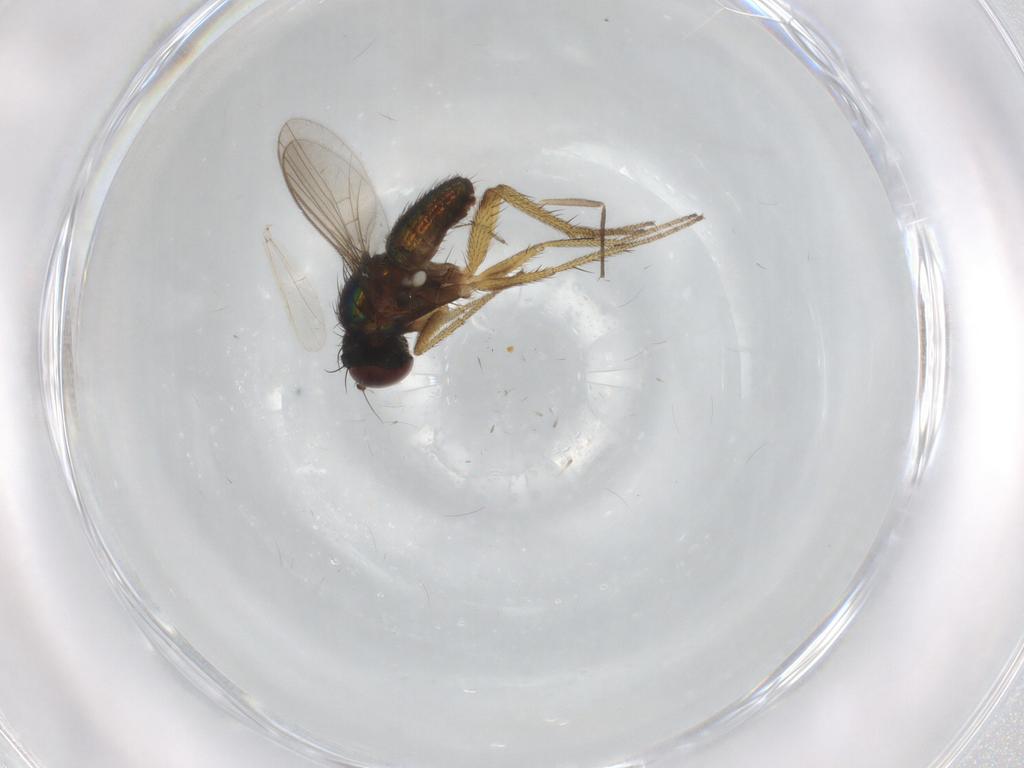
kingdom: Animalia
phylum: Arthropoda
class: Insecta
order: Diptera
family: Chironomidae
